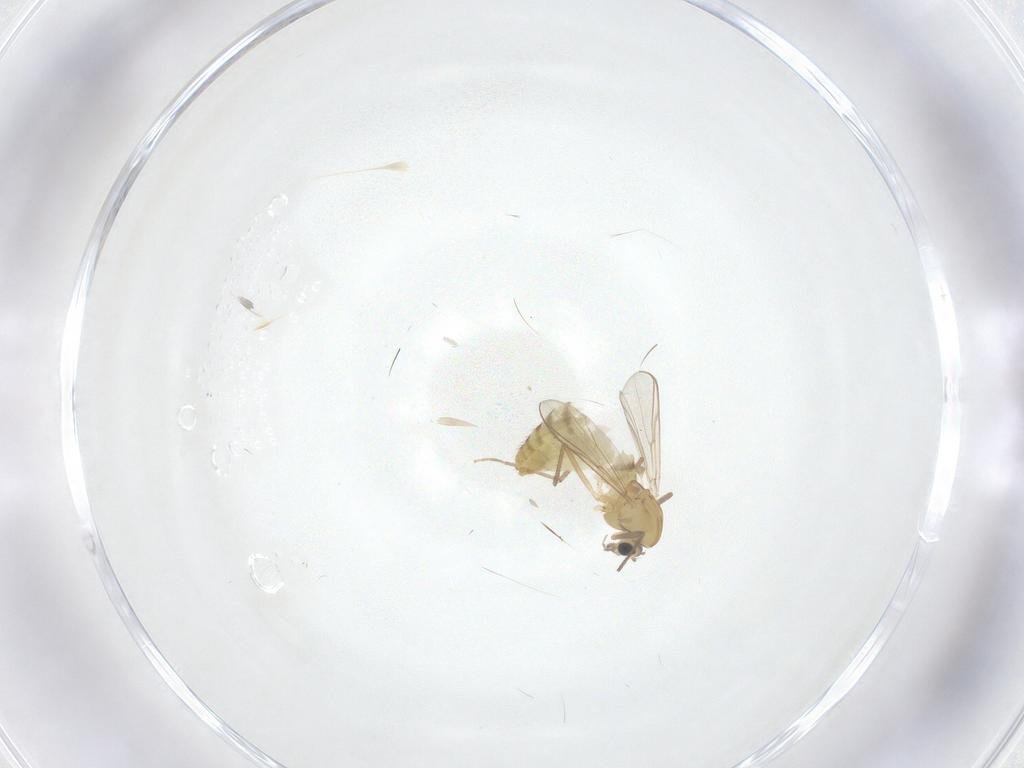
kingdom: Animalia
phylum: Arthropoda
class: Insecta
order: Diptera
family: Chironomidae
